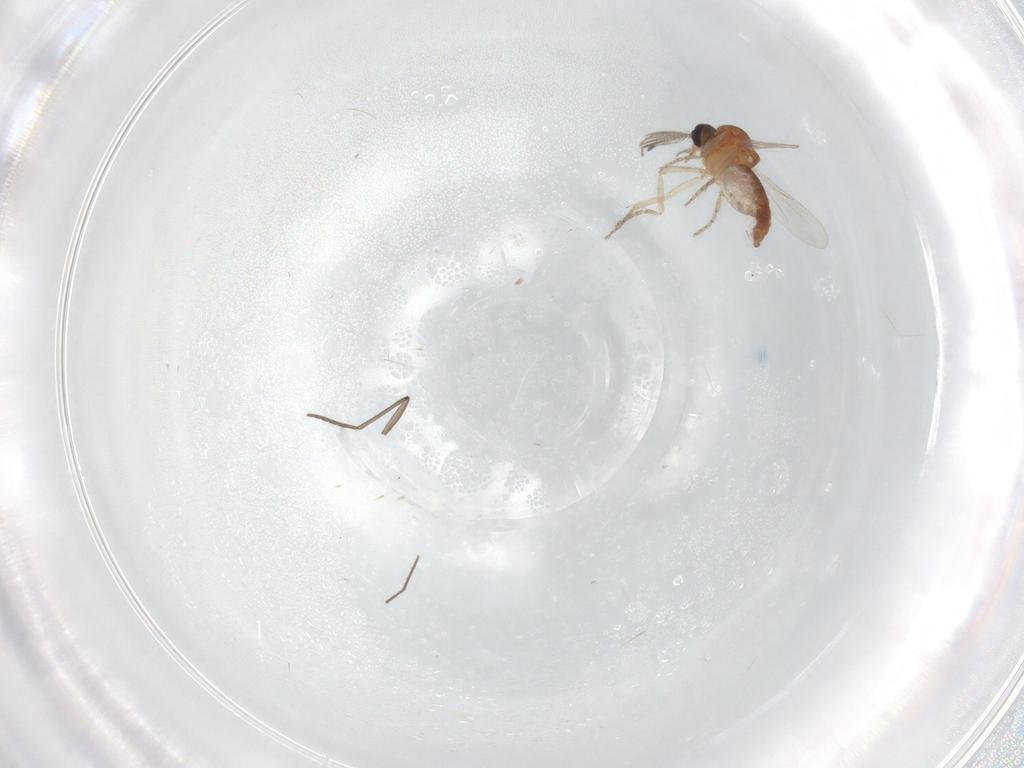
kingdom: Animalia
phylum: Arthropoda
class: Insecta
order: Diptera
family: Ceratopogonidae
